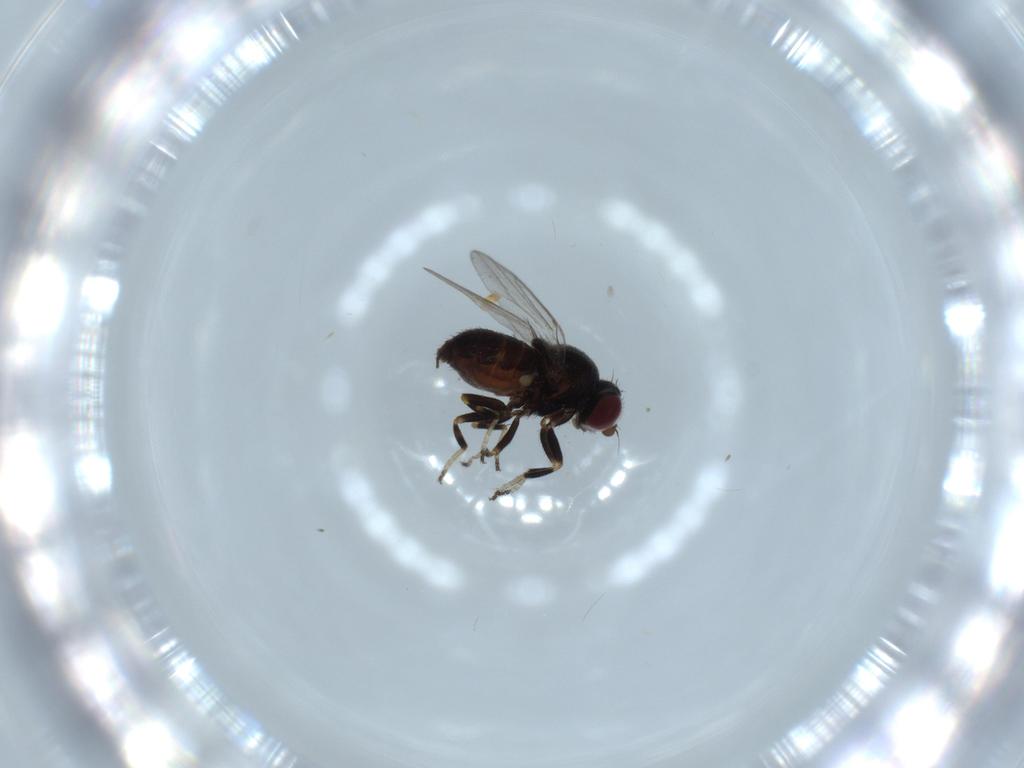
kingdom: Animalia
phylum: Arthropoda
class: Insecta
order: Diptera
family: Chloropidae
